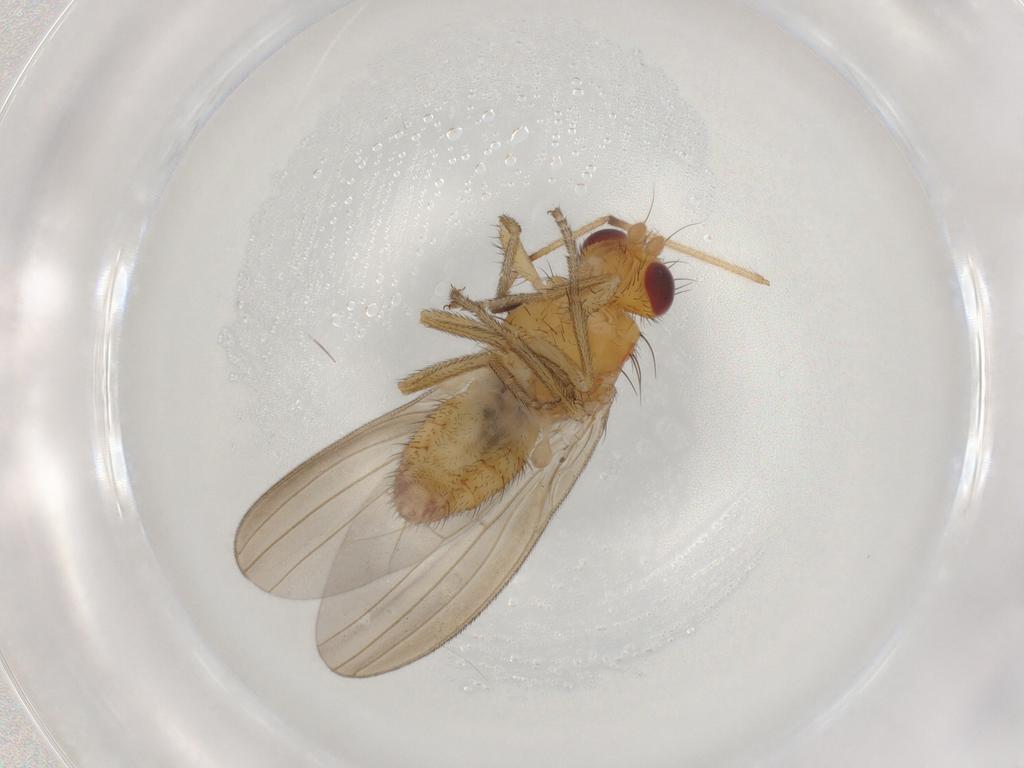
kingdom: Animalia
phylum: Arthropoda
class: Insecta
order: Diptera
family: Natalimyzidae
